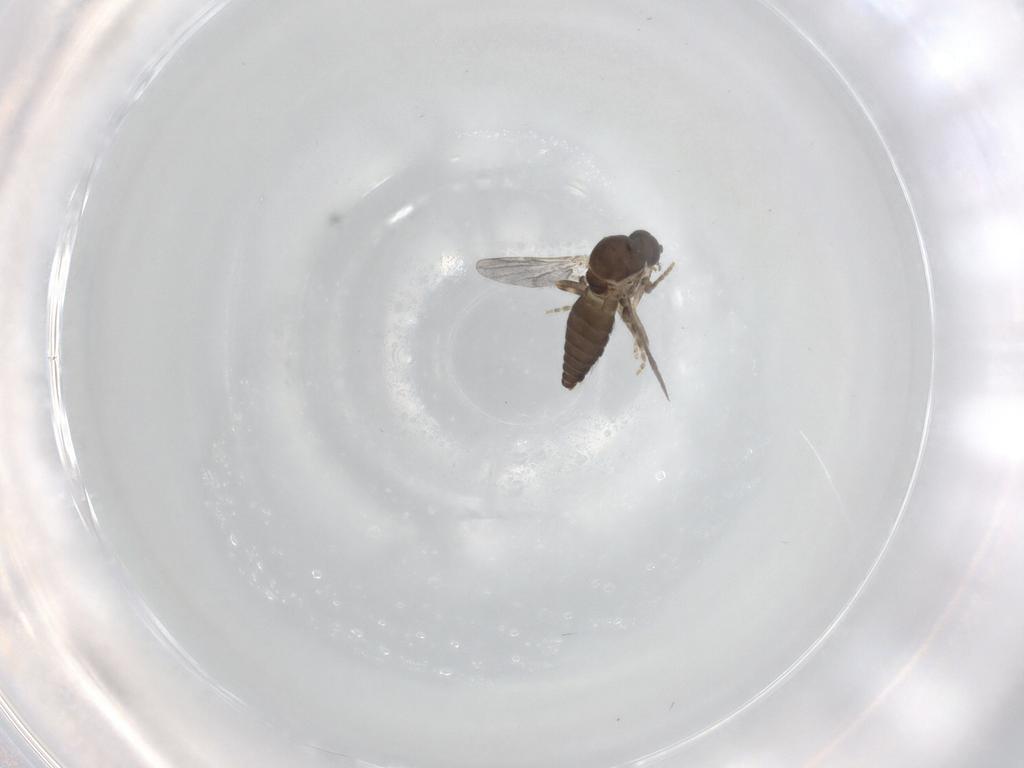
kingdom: Animalia
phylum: Arthropoda
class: Insecta
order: Diptera
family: Ceratopogonidae
